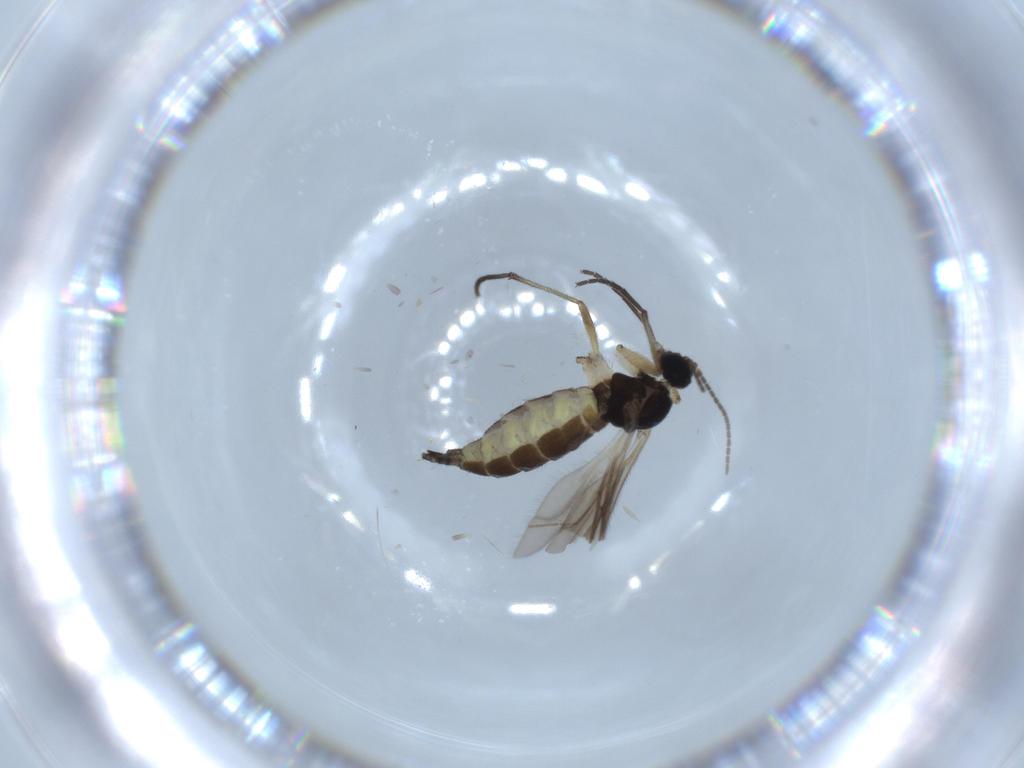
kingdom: Animalia
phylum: Arthropoda
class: Insecta
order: Diptera
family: Sciaridae
